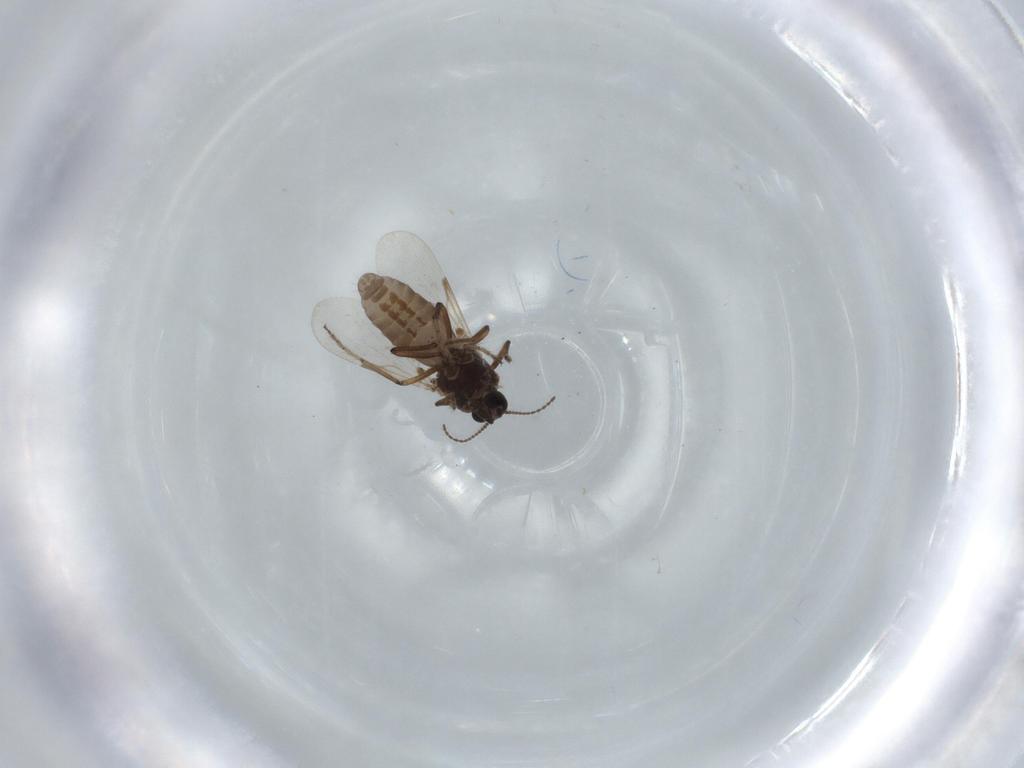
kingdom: Animalia
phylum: Arthropoda
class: Insecta
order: Diptera
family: Chironomidae
